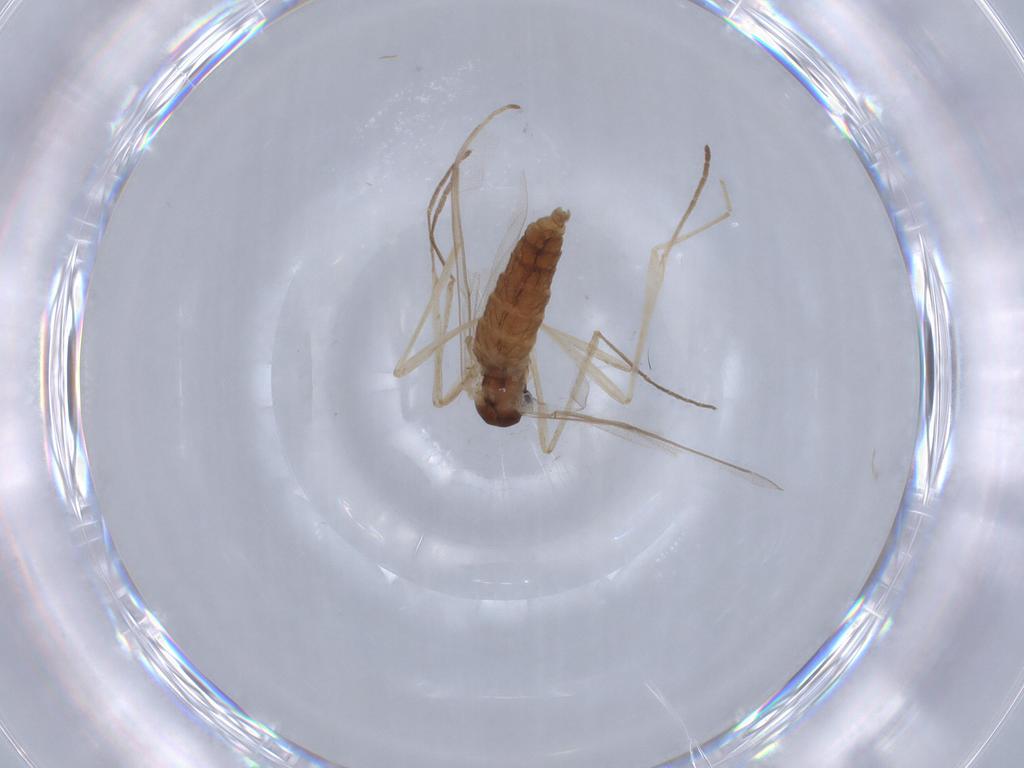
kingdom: Animalia
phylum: Arthropoda
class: Insecta
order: Diptera
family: Cecidomyiidae
